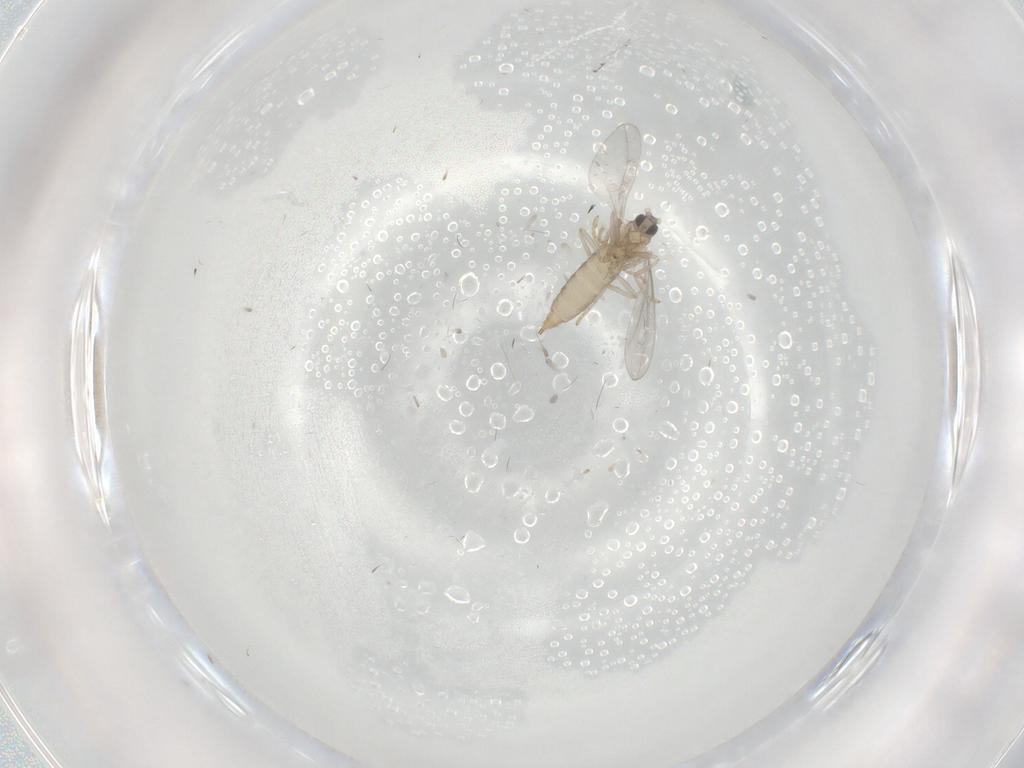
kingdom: Animalia
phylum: Arthropoda
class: Insecta
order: Diptera
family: Cecidomyiidae
